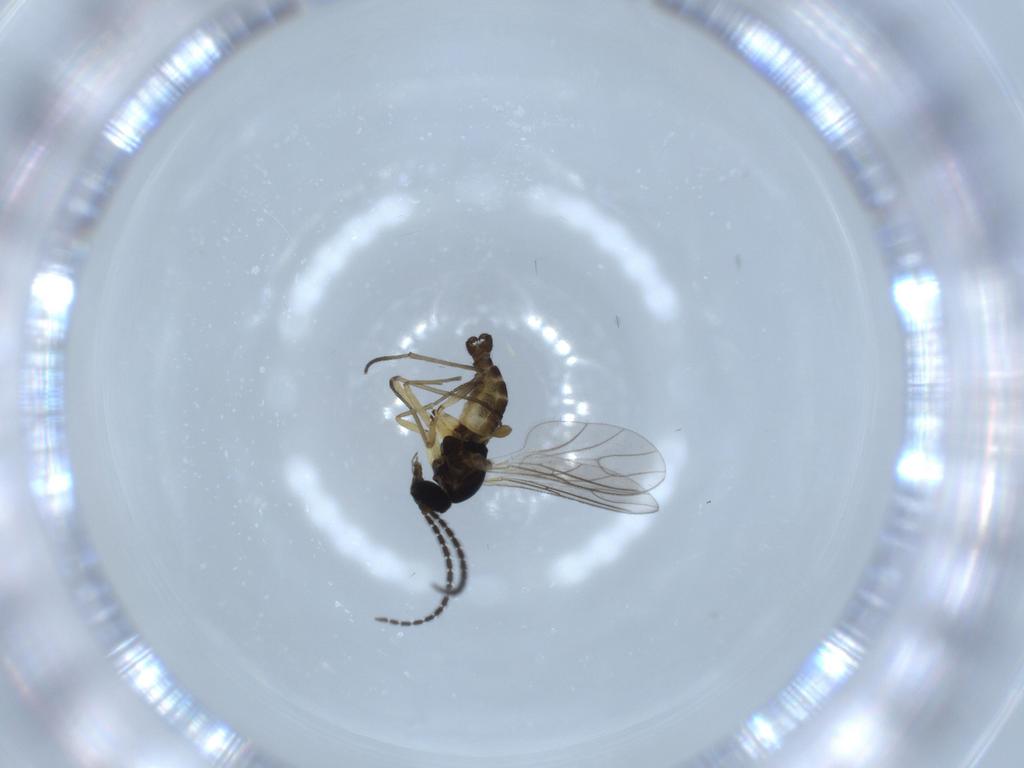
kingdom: Animalia
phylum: Arthropoda
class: Insecta
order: Diptera
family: Sciaridae
